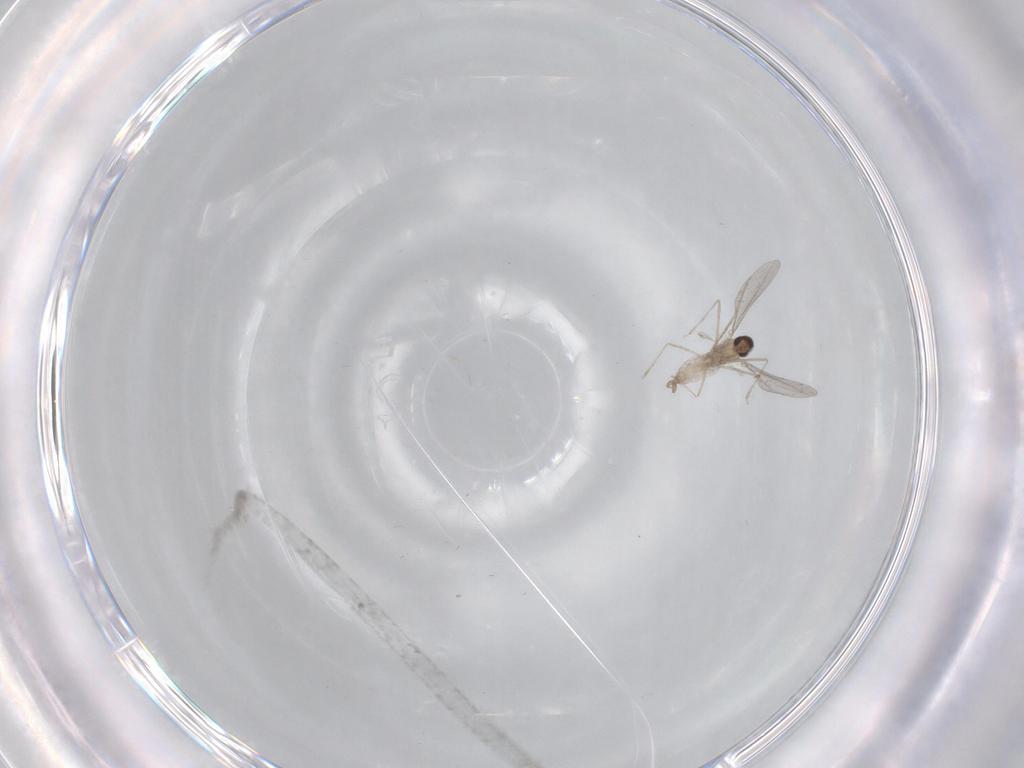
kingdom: Animalia
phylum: Arthropoda
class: Insecta
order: Diptera
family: Cecidomyiidae
